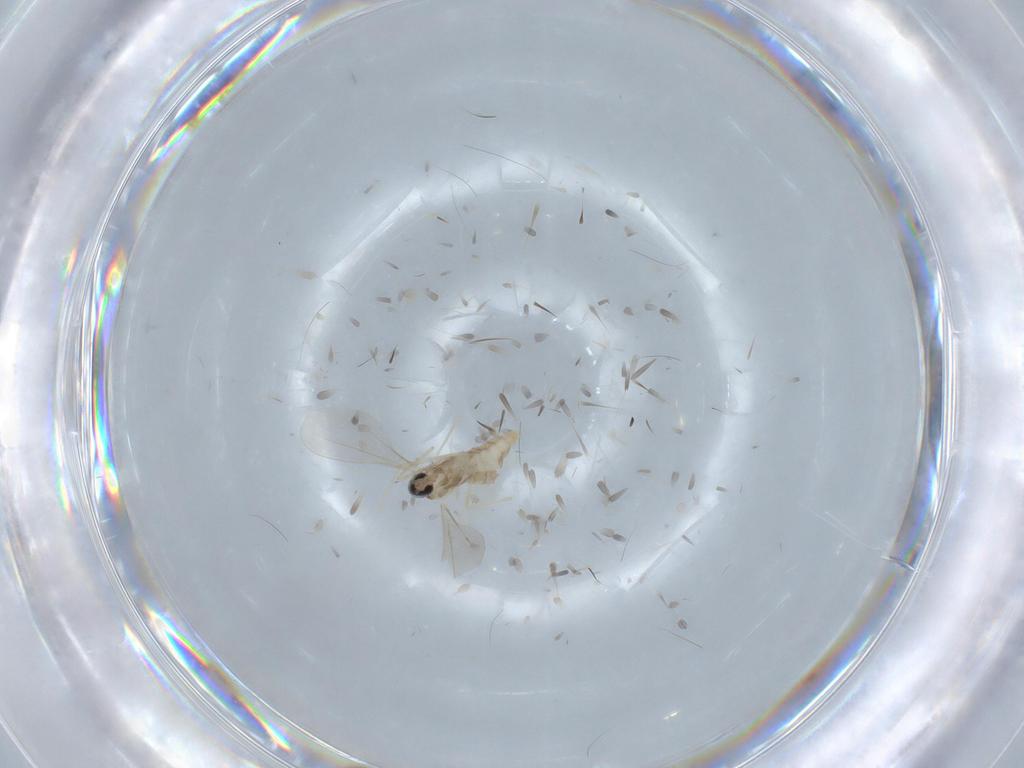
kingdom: Animalia
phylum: Arthropoda
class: Insecta
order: Diptera
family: Cecidomyiidae
